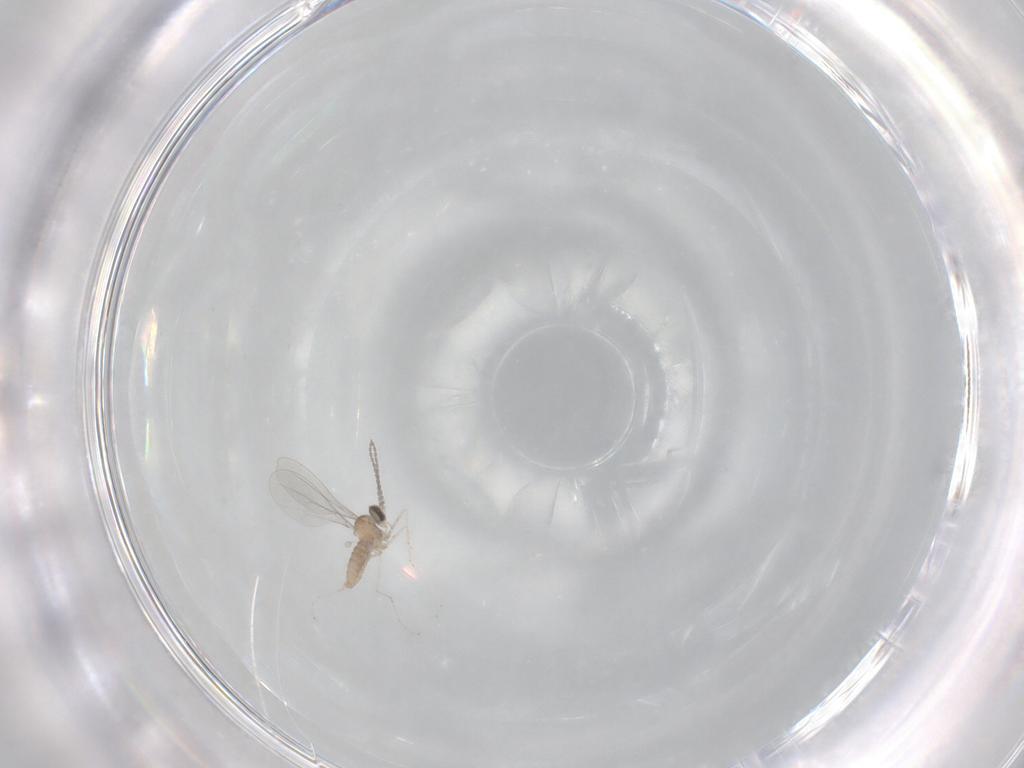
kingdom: Animalia
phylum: Arthropoda
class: Insecta
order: Diptera
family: Cecidomyiidae
